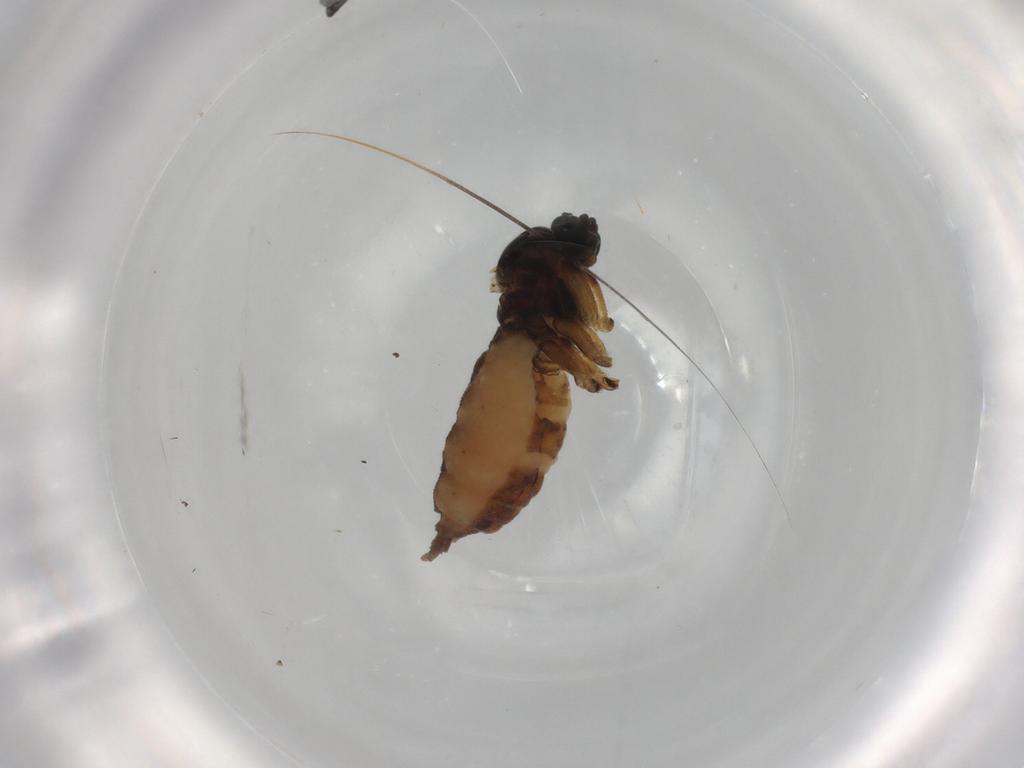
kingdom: Animalia
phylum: Arthropoda
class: Insecta
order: Diptera
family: Sciaridae
